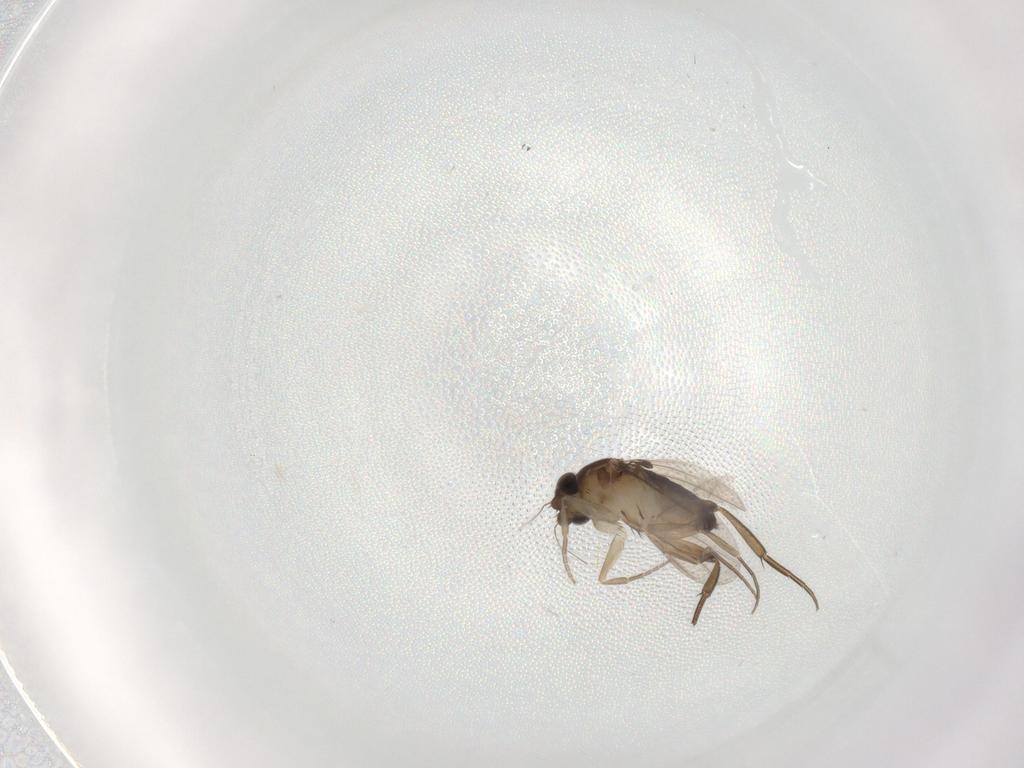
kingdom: Animalia
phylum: Arthropoda
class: Insecta
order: Diptera
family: Phoridae
